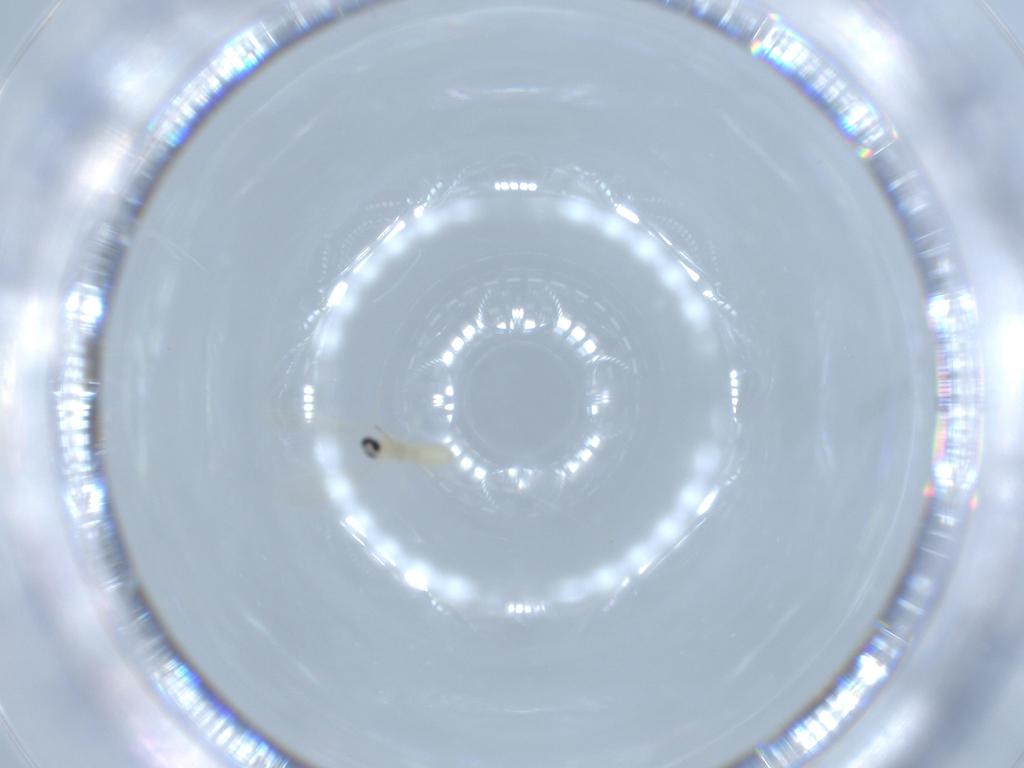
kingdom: Animalia
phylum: Arthropoda
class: Insecta
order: Diptera
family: Cecidomyiidae
